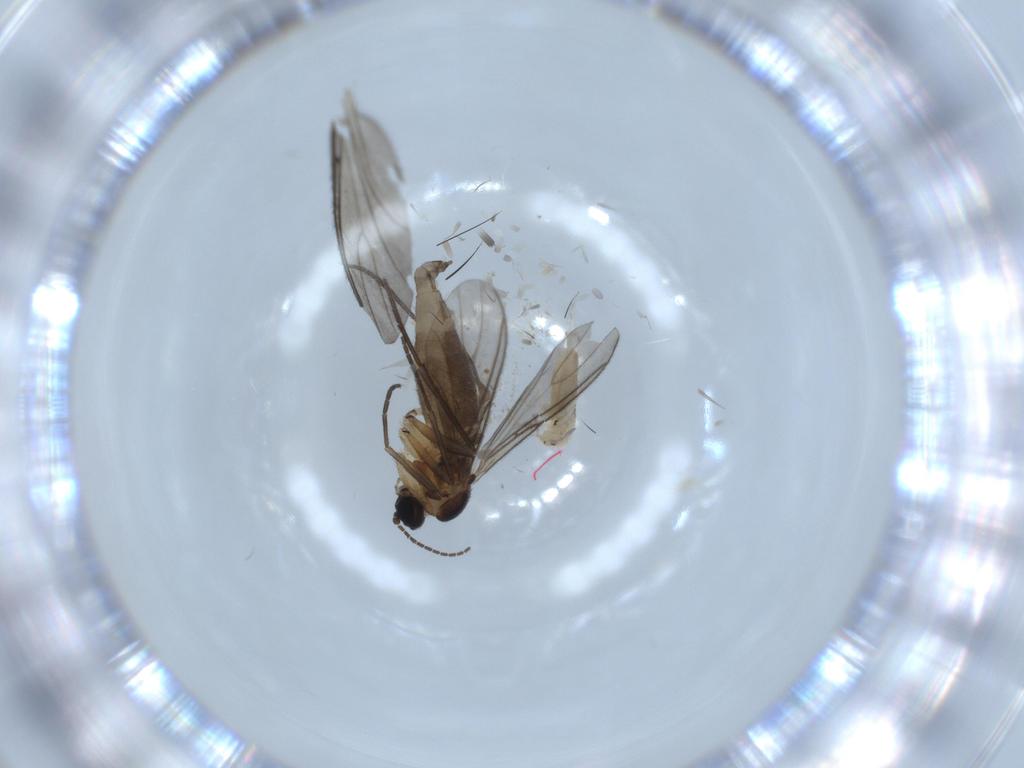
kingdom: Animalia
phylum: Arthropoda
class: Insecta
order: Diptera
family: Sciaridae
